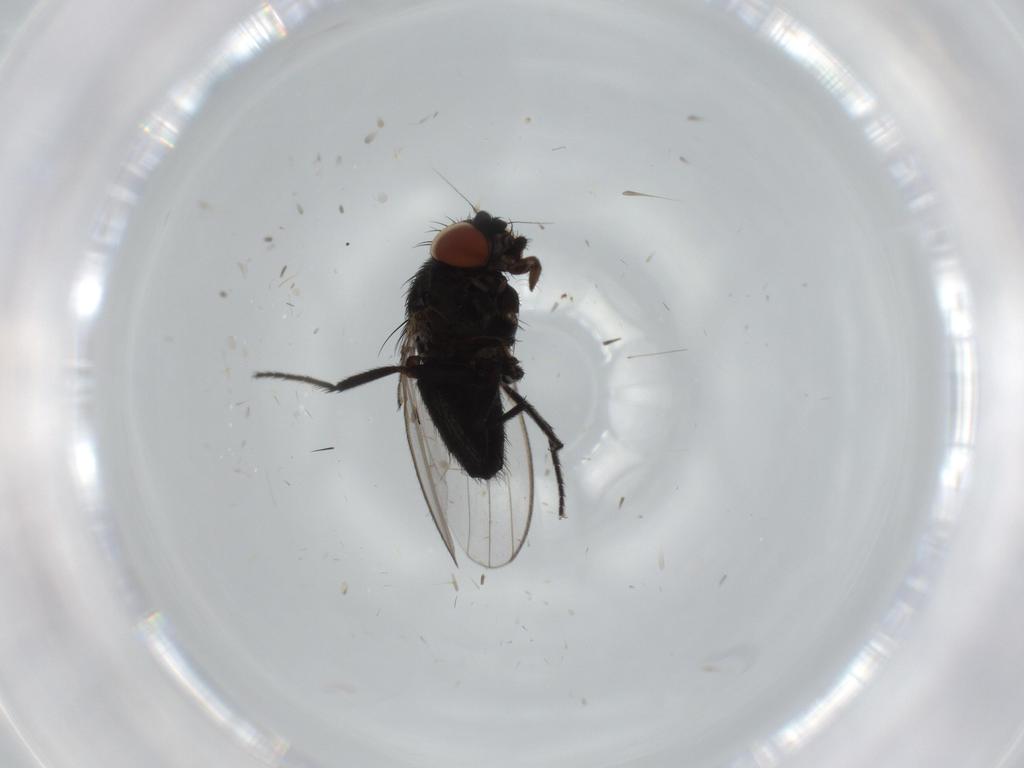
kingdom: Animalia
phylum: Arthropoda
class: Insecta
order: Diptera
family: Milichiidae
